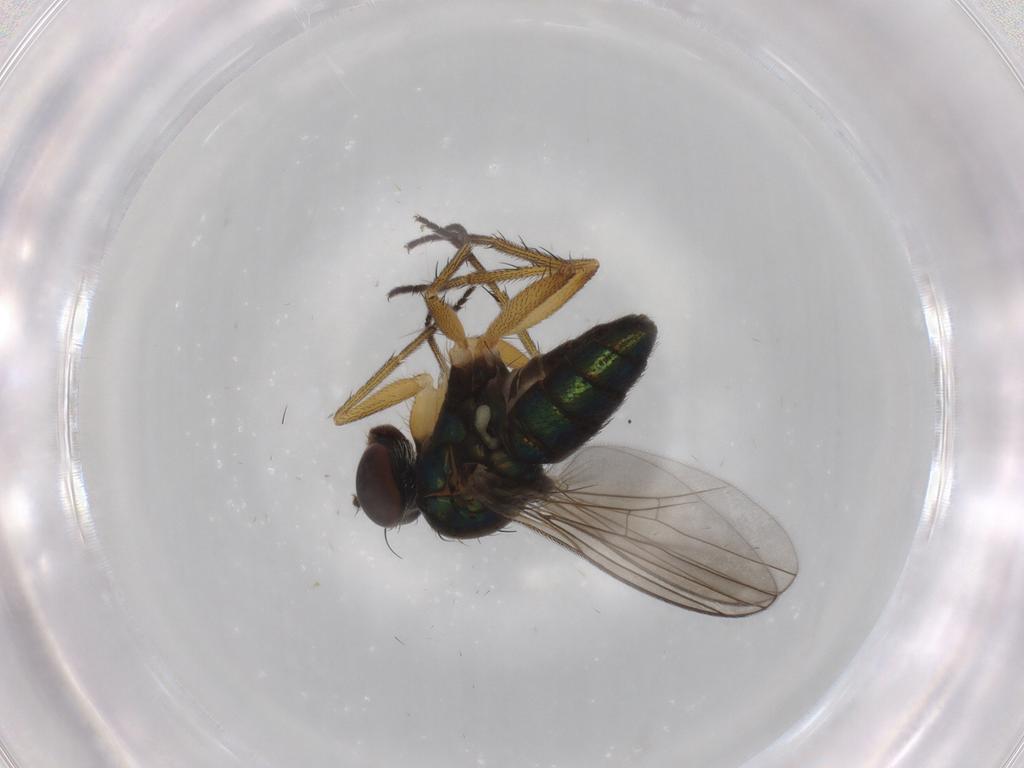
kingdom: Animalia
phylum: Arthropoda
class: Insecta
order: Diptera
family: Dolichopodidae
